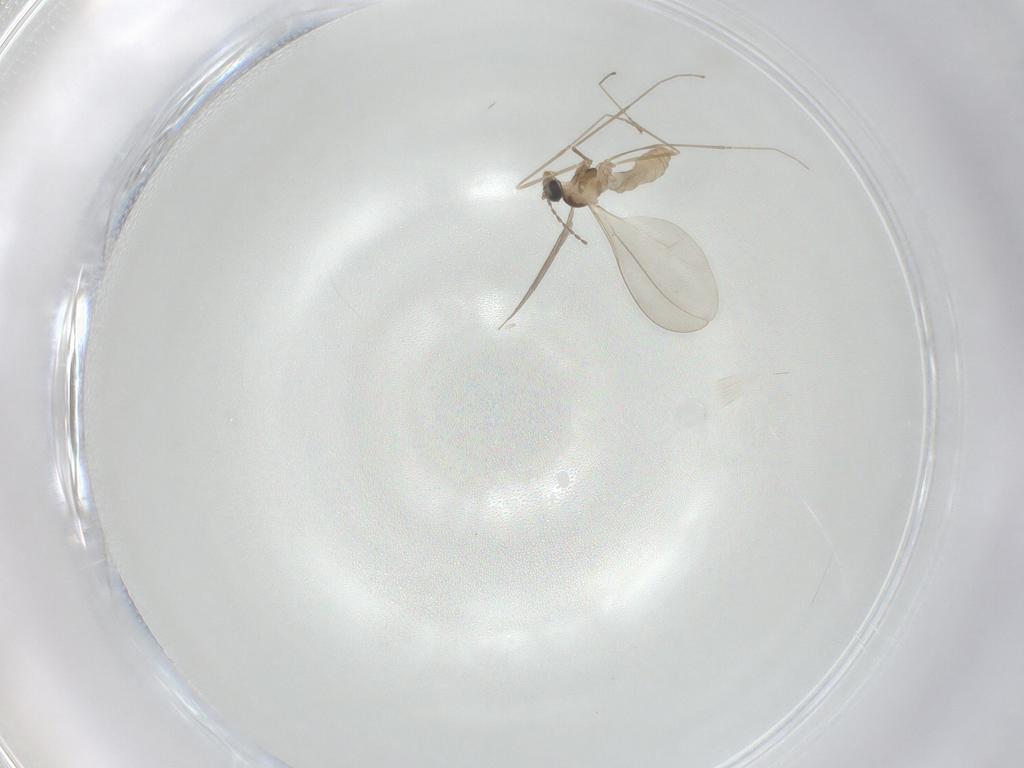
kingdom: Animalia
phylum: Arthropoda
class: Insecta
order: Diptera
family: Cecidomyiidae
